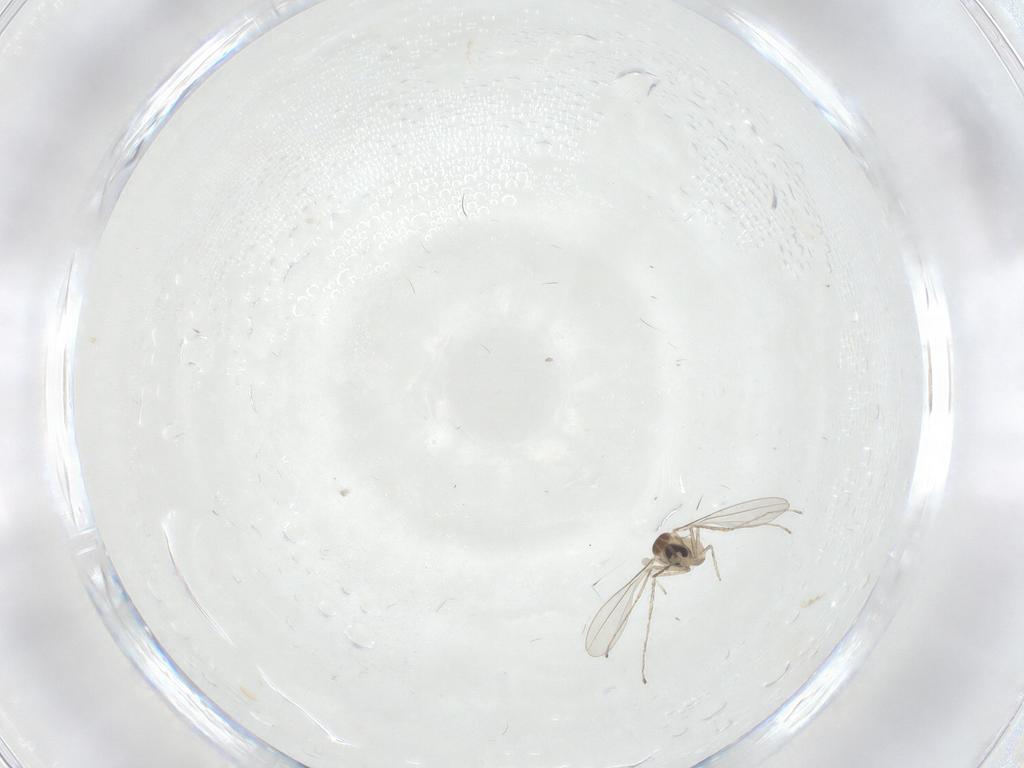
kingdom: Animalia
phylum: Arthropoda
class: Insecta
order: Diptera
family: Cecidomyiidae
